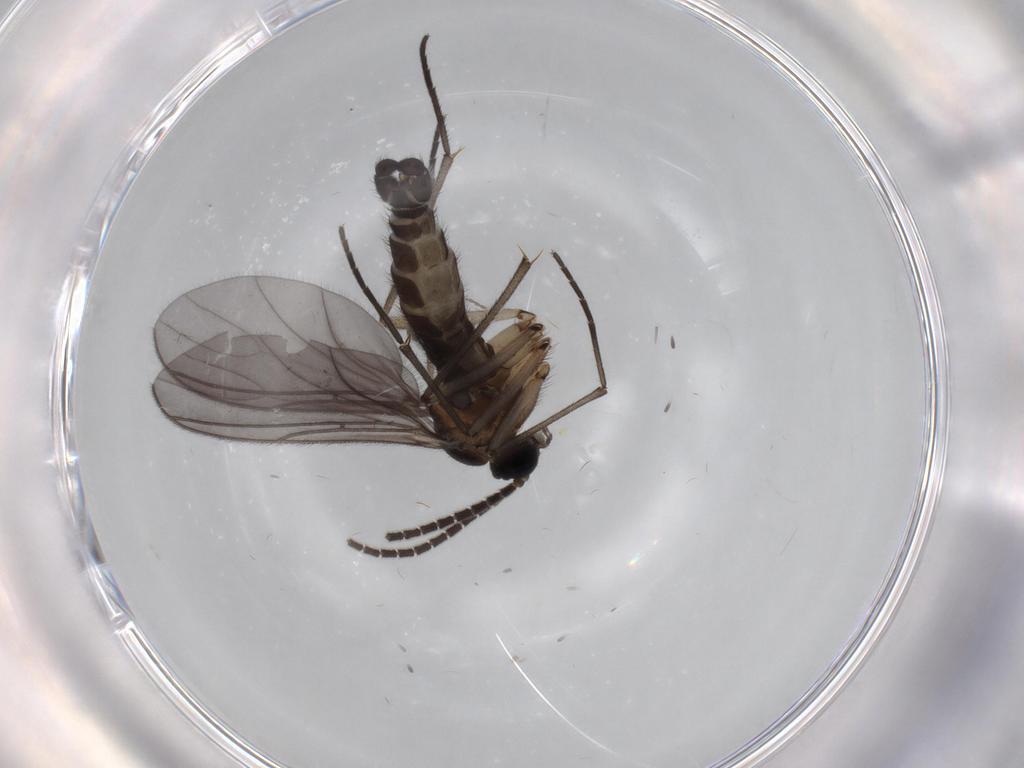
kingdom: Animalia
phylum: Arthropoda
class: Insecta
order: Diptera
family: Sciaridae
